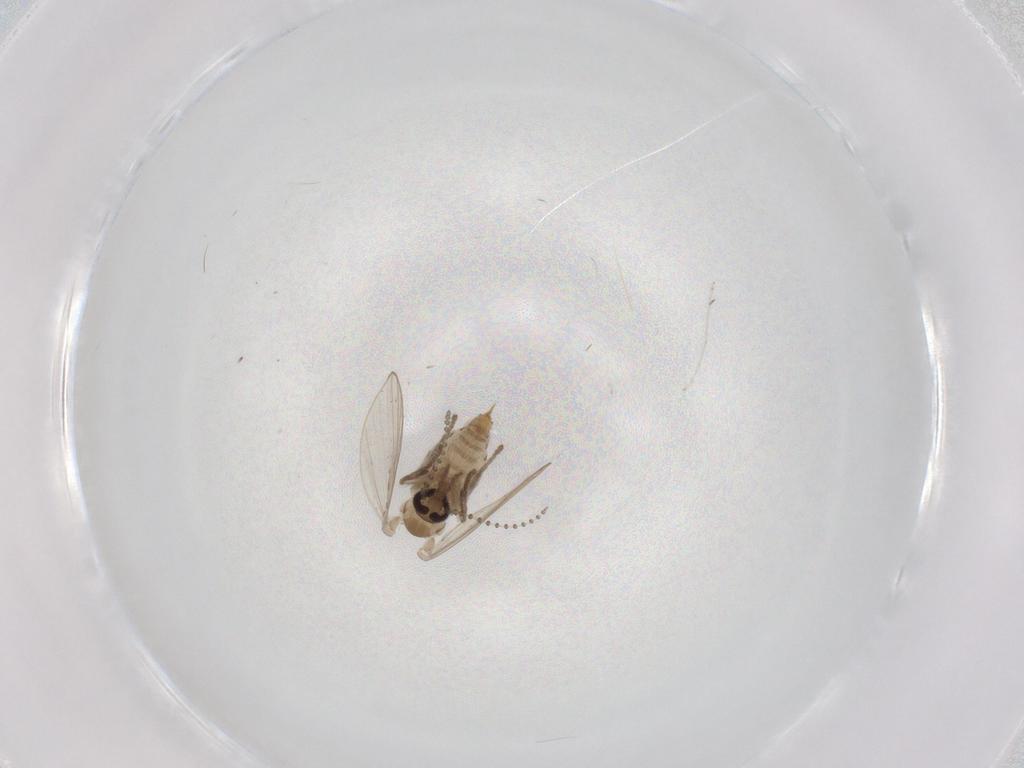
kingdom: Animalia
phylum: Arthropoda
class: Insecta
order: Diptera
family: Psychodidae
